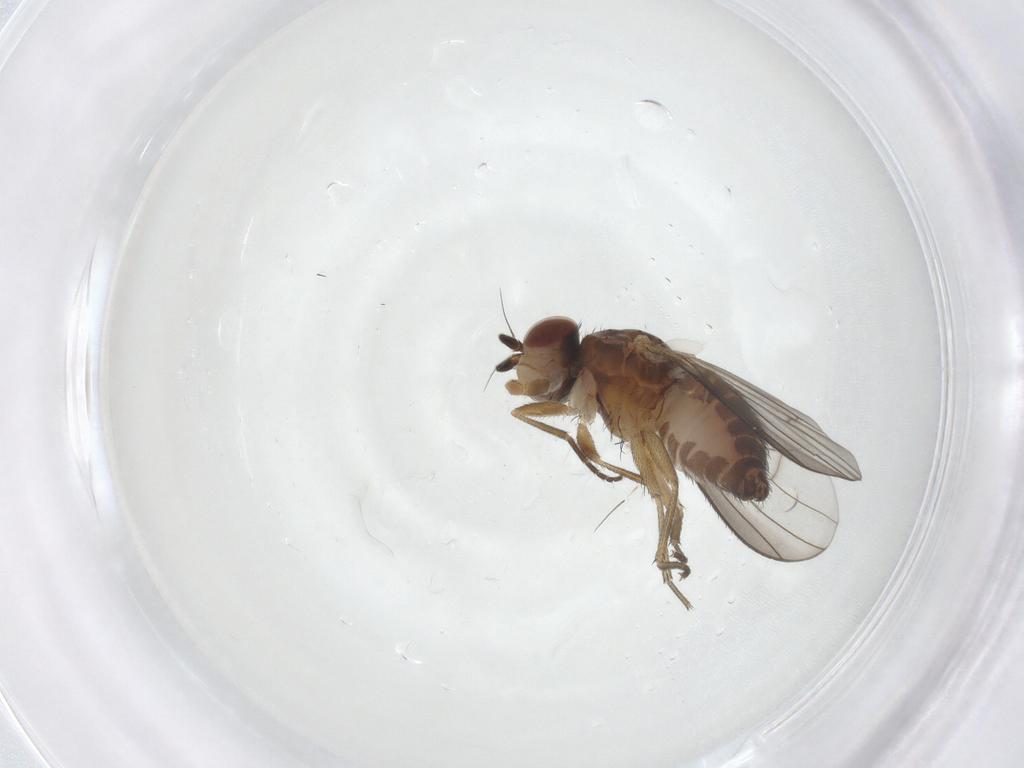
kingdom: Animalia
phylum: Arthropoda
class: Insecta
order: Diptera
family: Heleomyzidae
